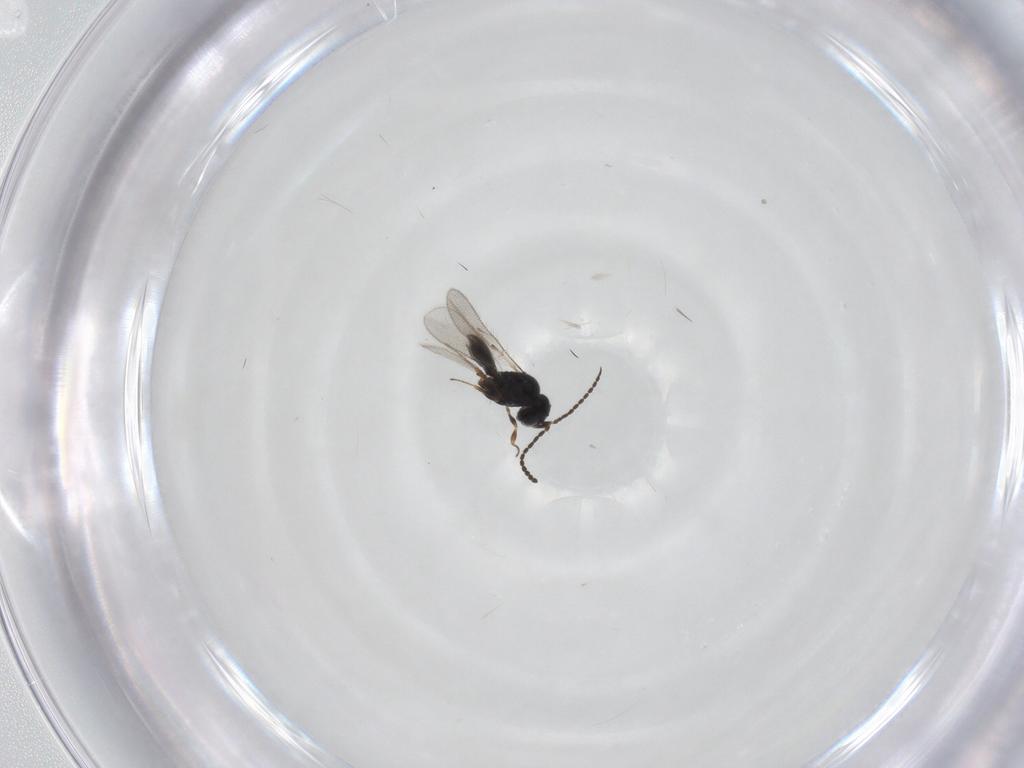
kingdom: Animalia
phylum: Arthropoda
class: Insecta
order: Hymenoptera
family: Scelionidae
